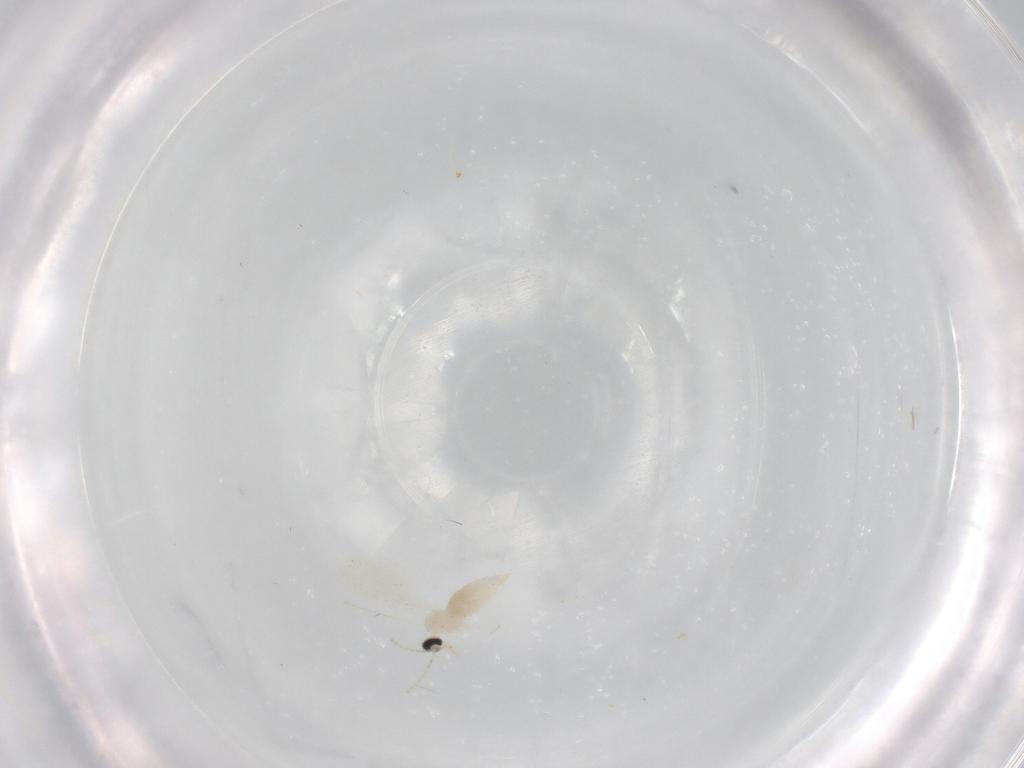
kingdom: Animalia
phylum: Arthropoda
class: Insecta
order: Diptera
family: Cecidomyiidae
